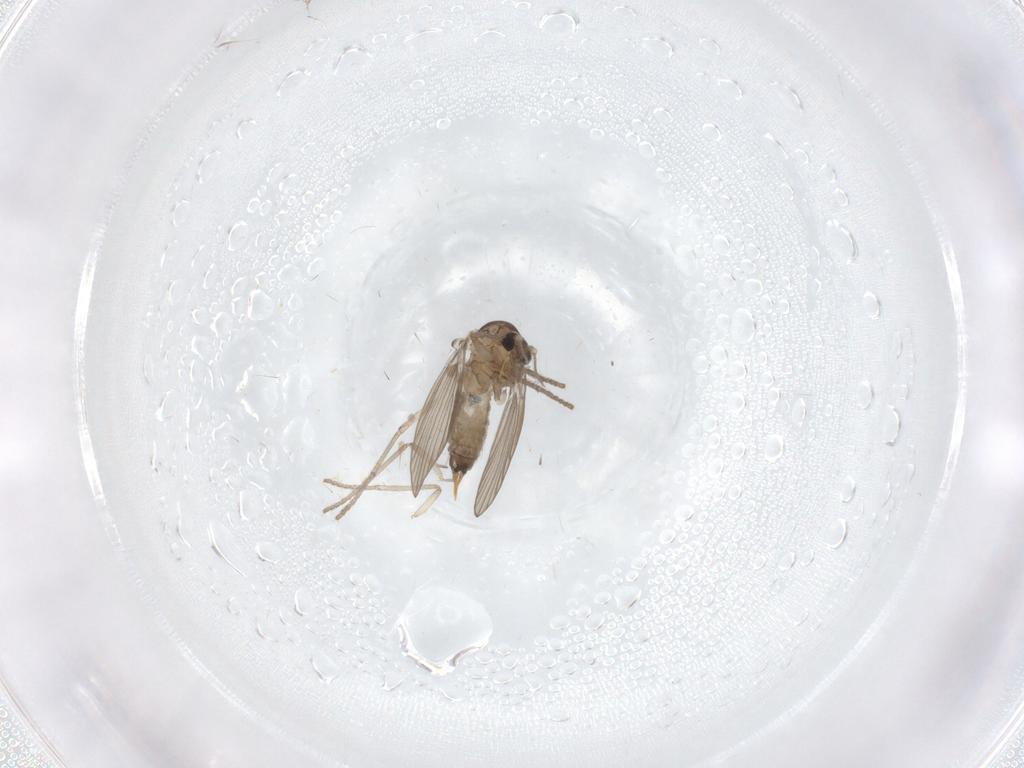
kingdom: Animalia
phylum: Arthropoda
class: Insecta
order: Diptera
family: Psychodidae
